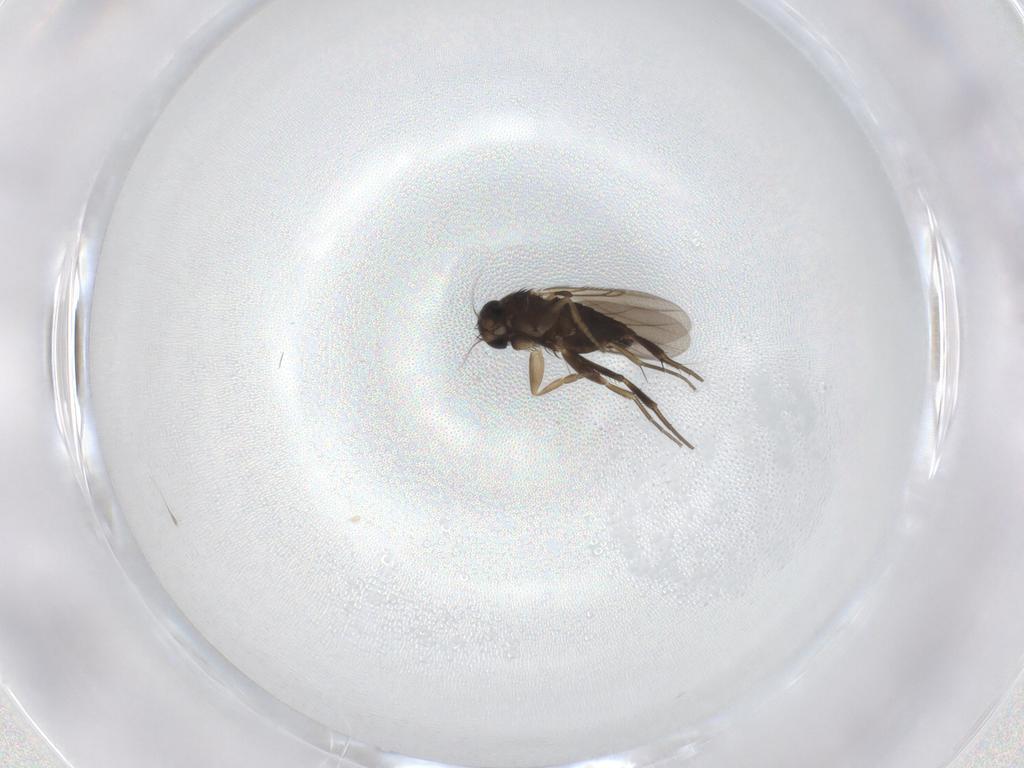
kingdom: Animalia
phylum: Arthropoda
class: Insecta
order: Diptera
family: Phoridae
